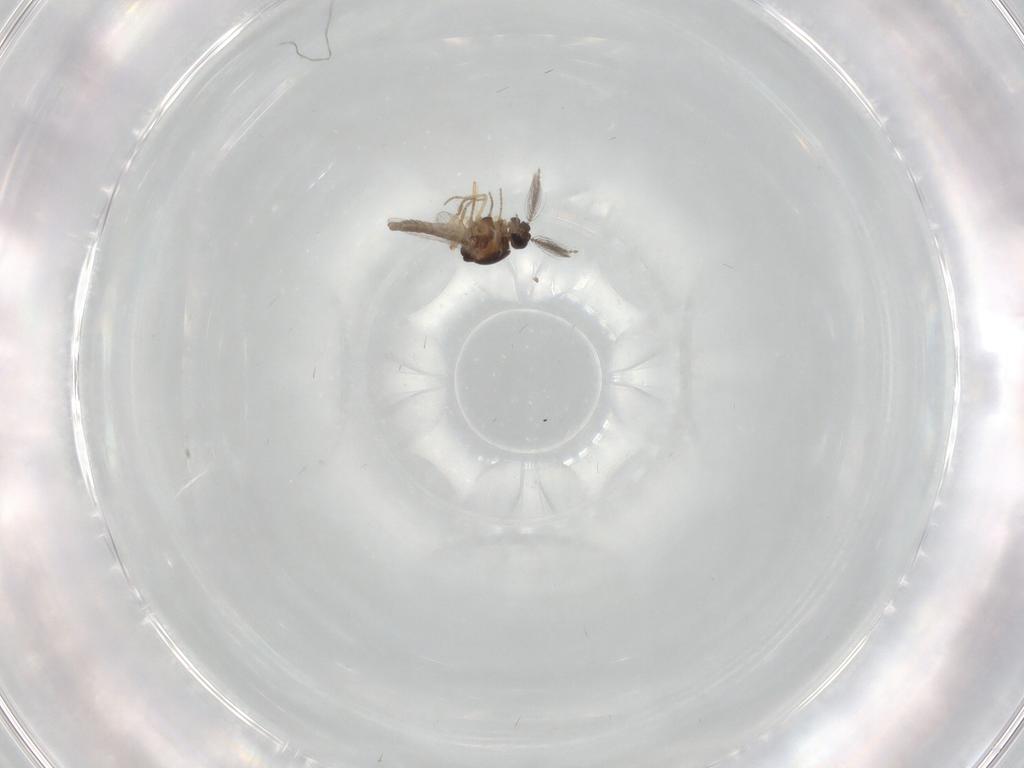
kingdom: Animalia
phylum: Arthropoda
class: Insecta
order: Diptera
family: Ceratopogonidae
